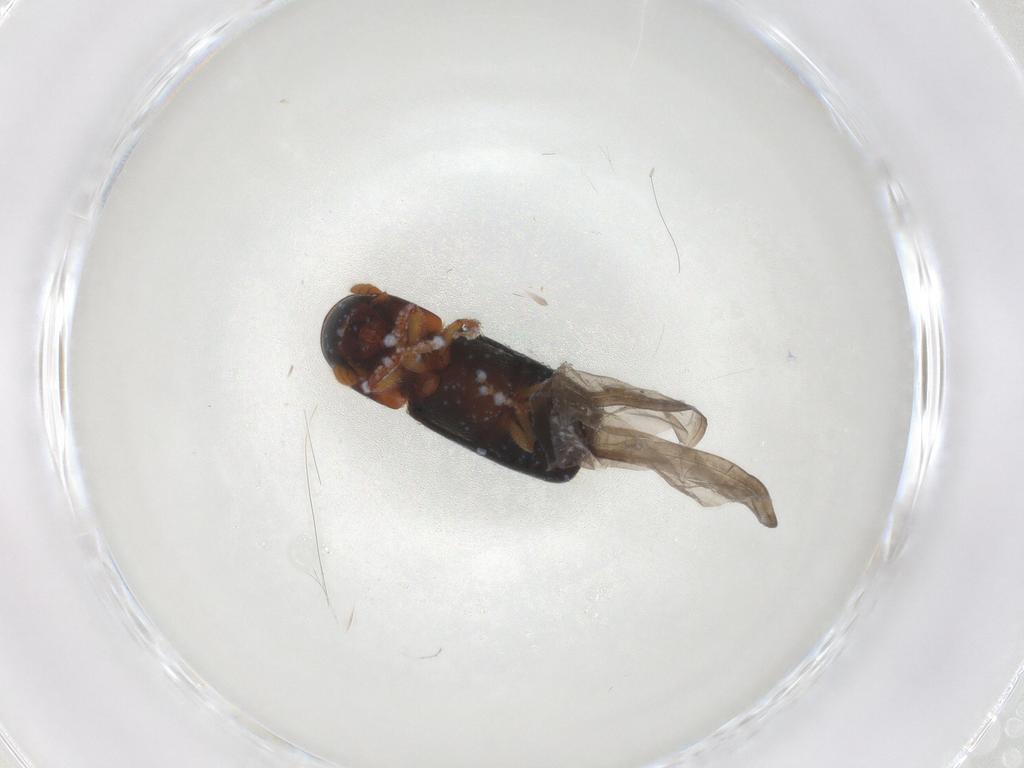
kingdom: Animalia
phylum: Arthropoda
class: Insecta
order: Coleoptera
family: Curculionidae
